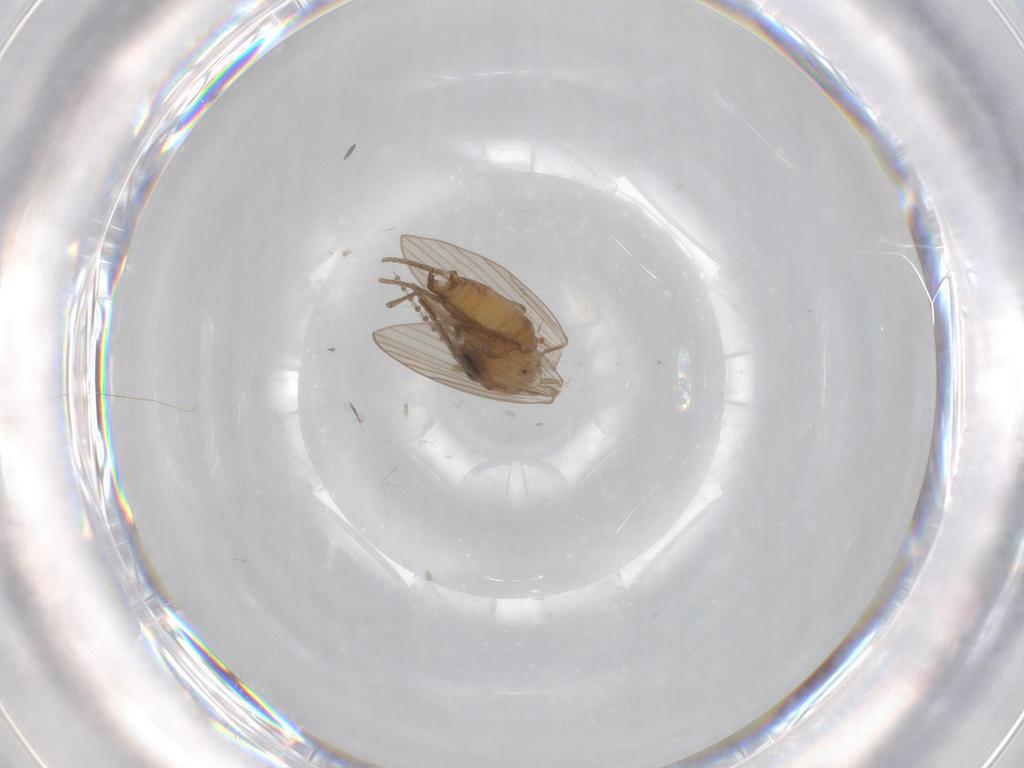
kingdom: Animalia
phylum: Arthropoda
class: Insecta
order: Diptera
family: Psychodidae
